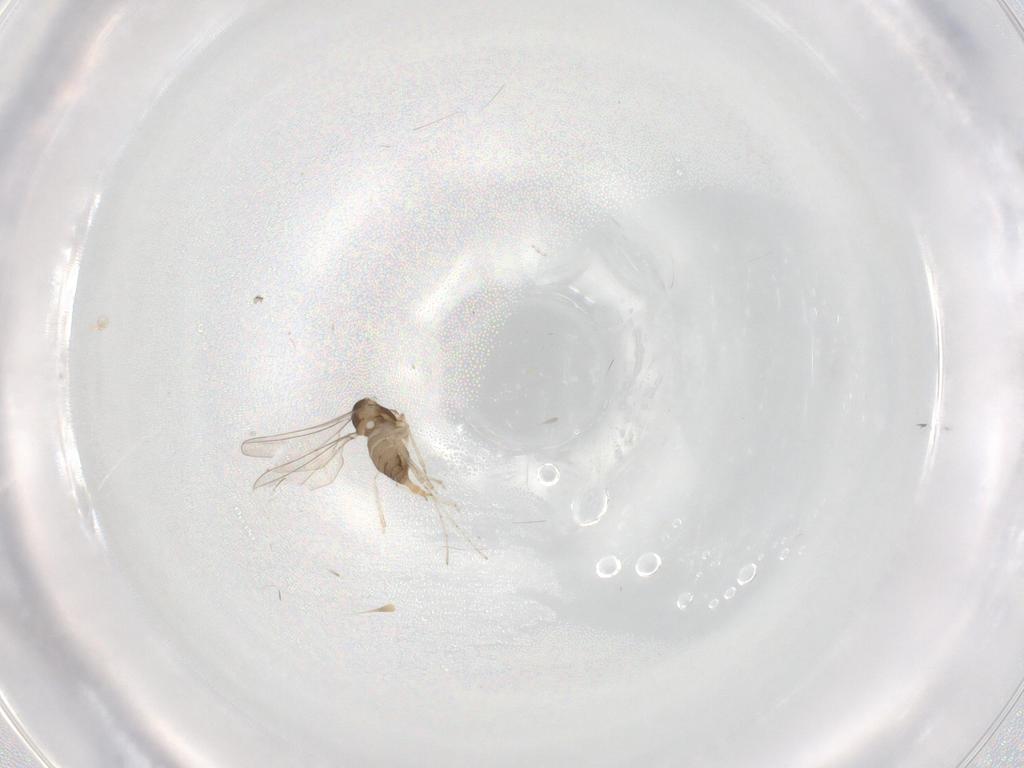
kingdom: Animalia
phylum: Arthropoda
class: Insecta
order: Diptera
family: Cecidomyiidae
